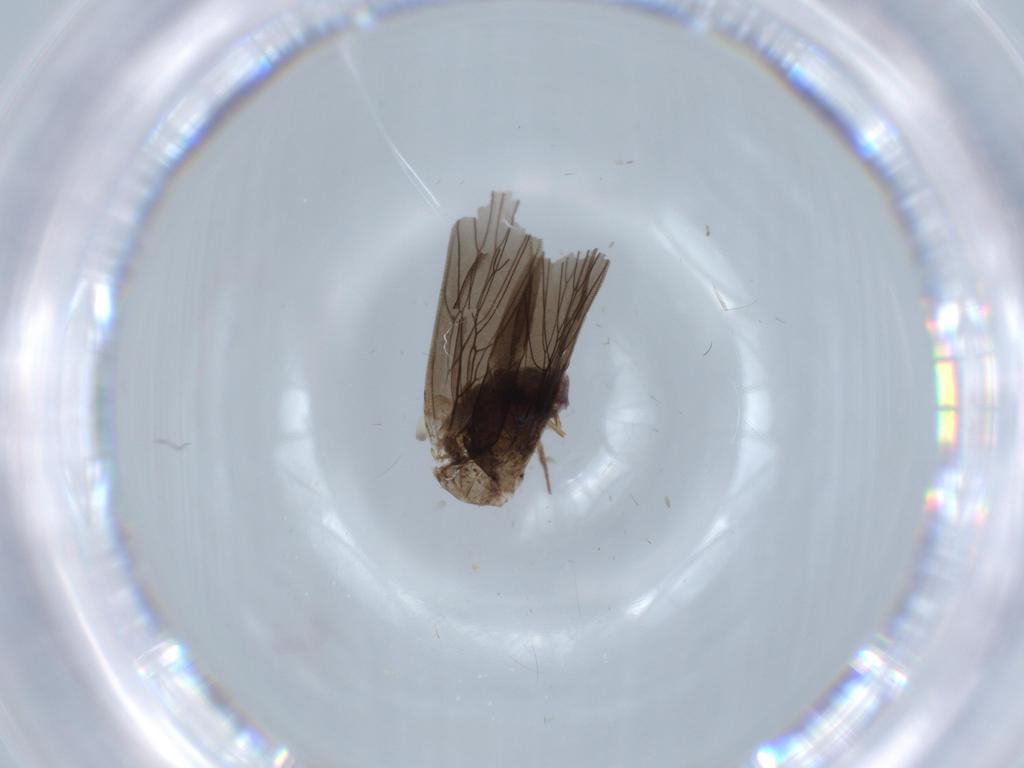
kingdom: Animalia
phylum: Arthropoda
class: Insecta
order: Psocodea
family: Lepidopsocidae
